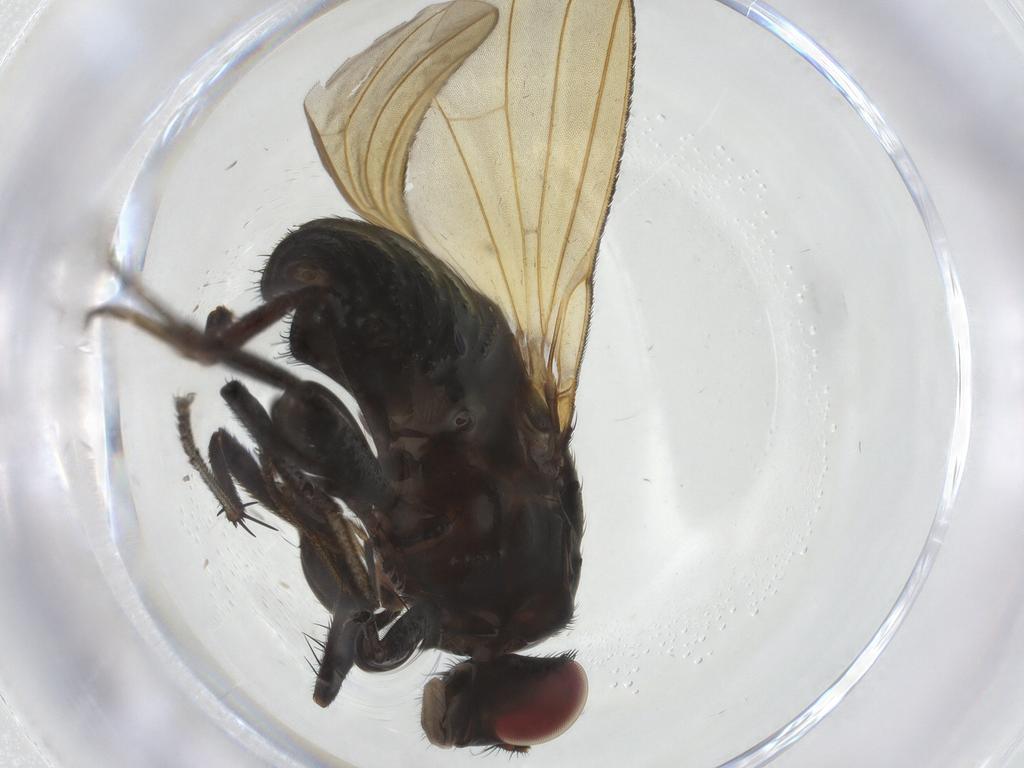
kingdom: Animalia
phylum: Arthropoda
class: Insecta
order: Diptera
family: Lauxaniidae
